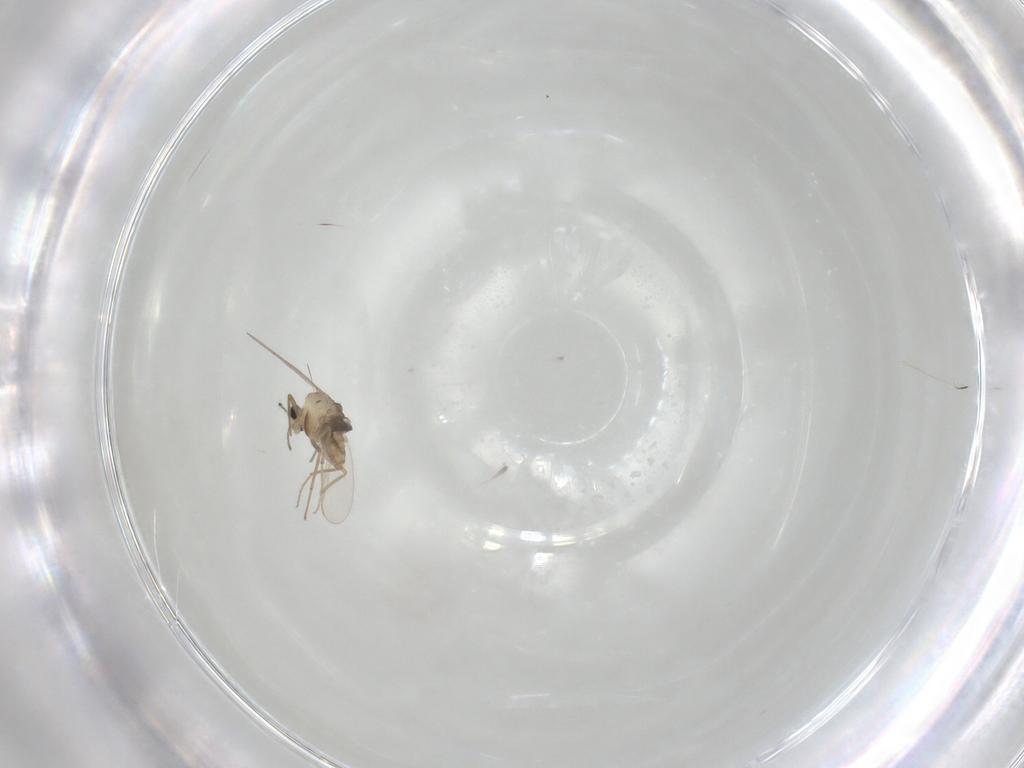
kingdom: Animalia
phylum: Arthropoda
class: Insecta
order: Diptera
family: Chironomidae
